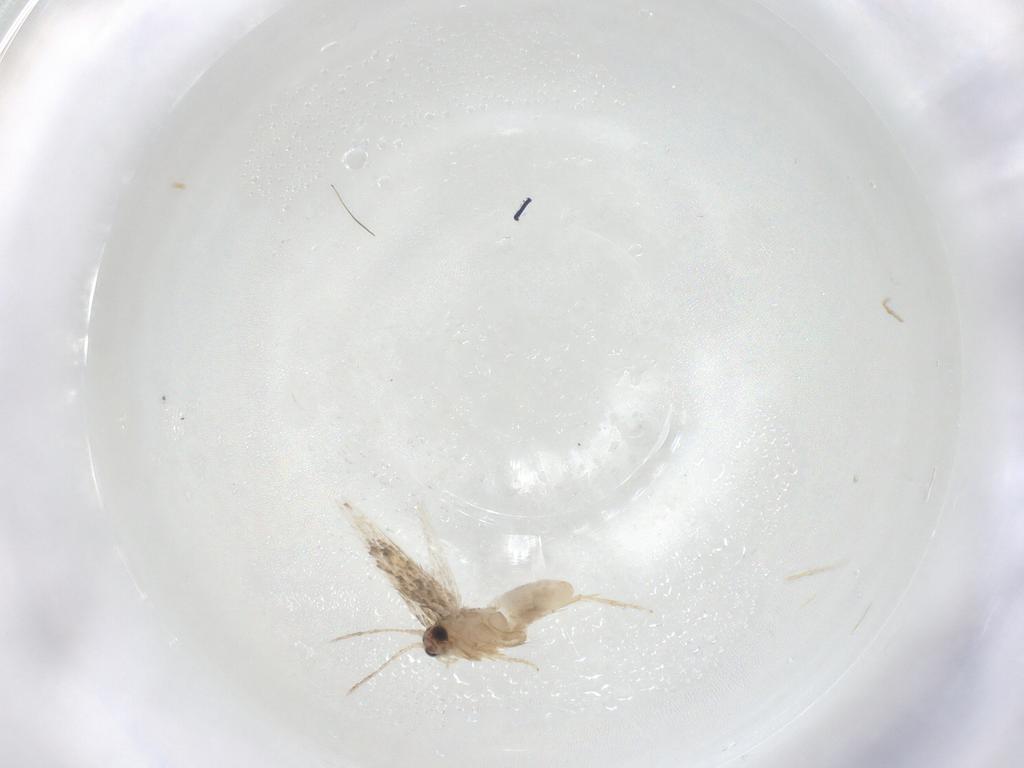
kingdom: Animalia
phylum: Arthropoda
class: Insecta
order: Lepidoptera
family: Nepticulidae
